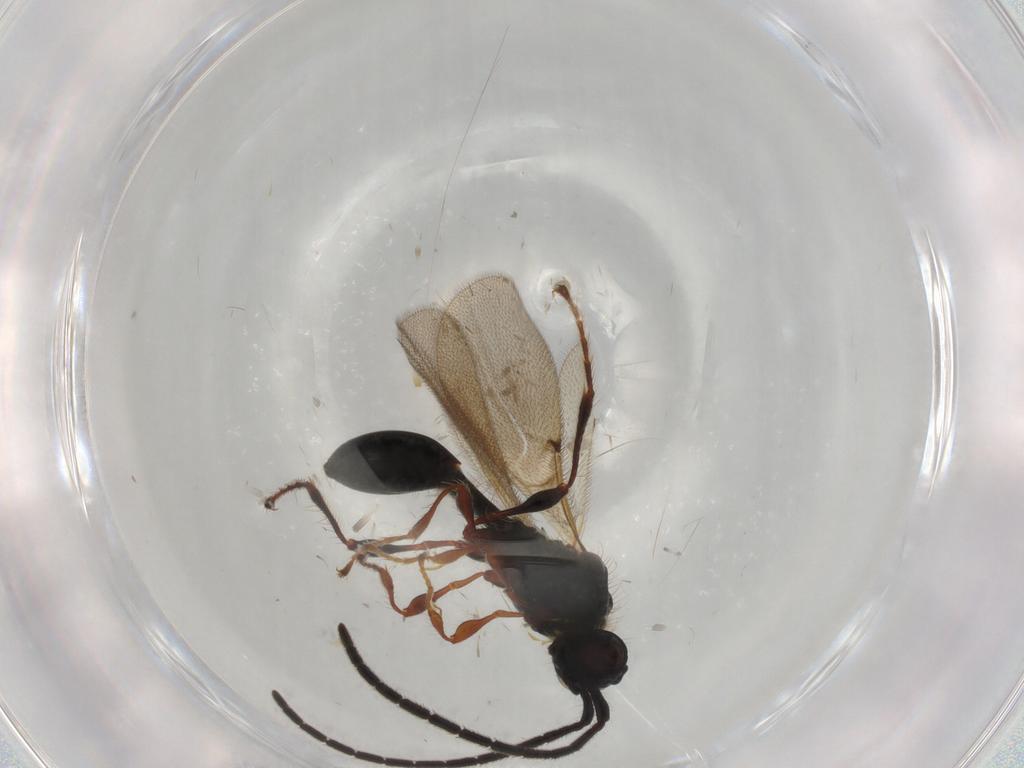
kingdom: Animalia
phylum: Arthropoda
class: Insecta
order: Hymenoptera
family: Diapriidae
